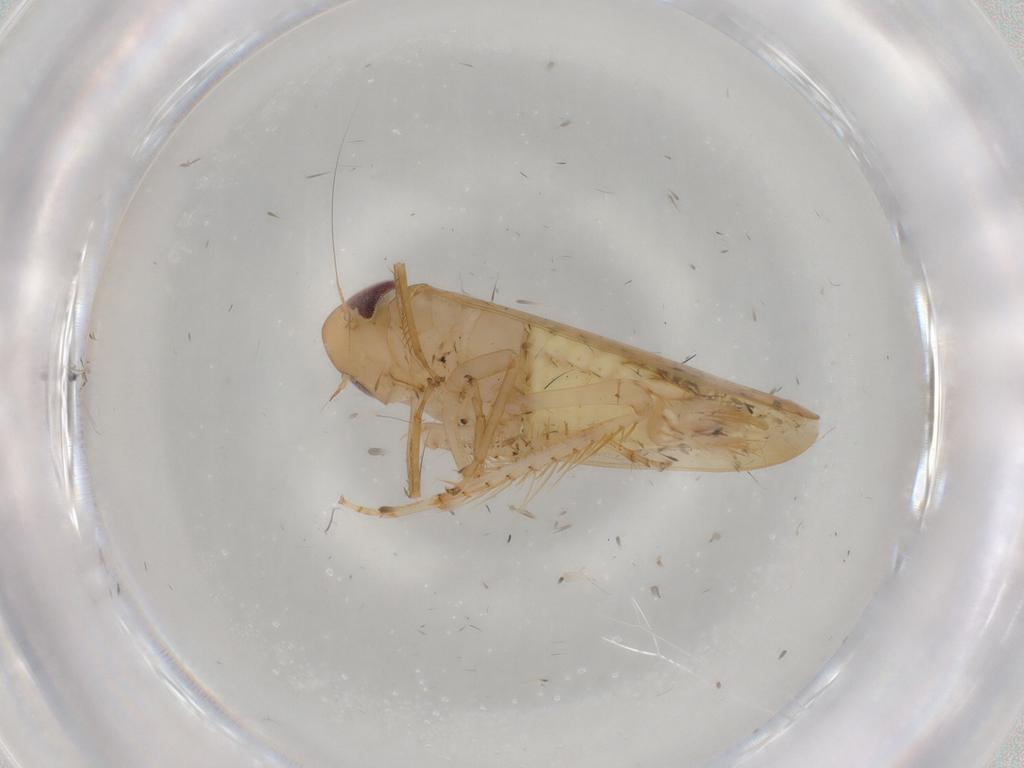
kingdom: Animalia
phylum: Arthropoda
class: Insecta
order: Hemiptera
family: Cicadellidae
